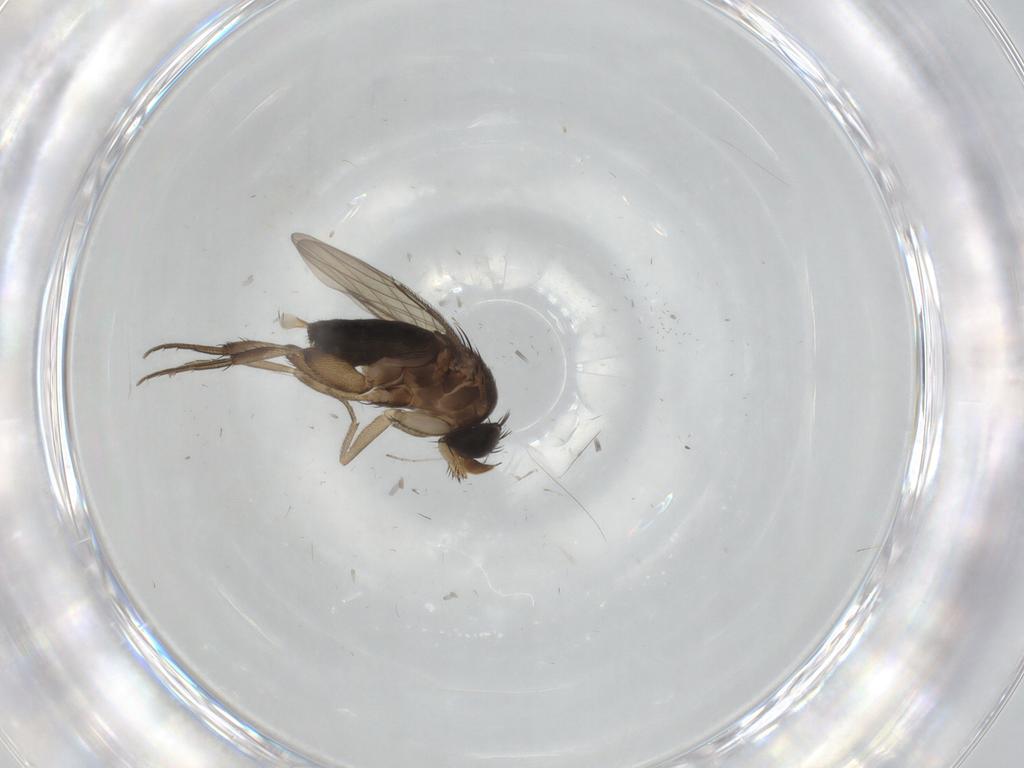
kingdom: Animalia
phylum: Arthropoda
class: Insecta
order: Diptera
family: Phoridae
